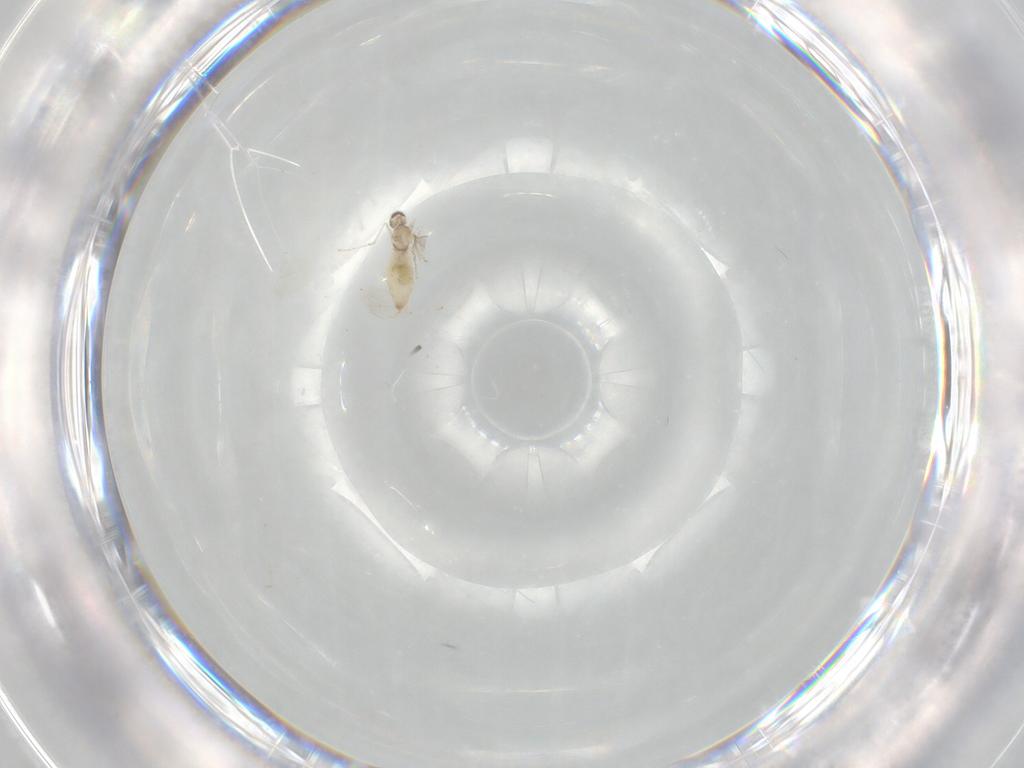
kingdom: Animalia
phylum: Arthropoda
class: Insecta
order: Diptera
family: Cecidomyiidae
